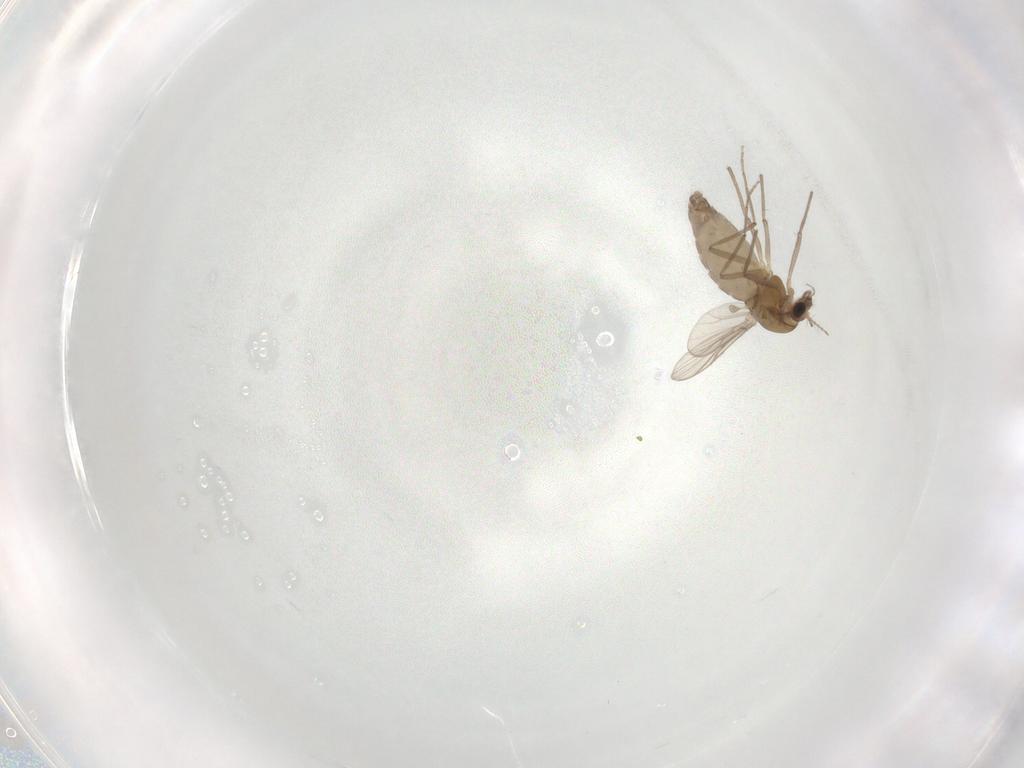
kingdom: Animalia
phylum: Arthropoda
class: Insecta
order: Diptera
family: Chironomidae
